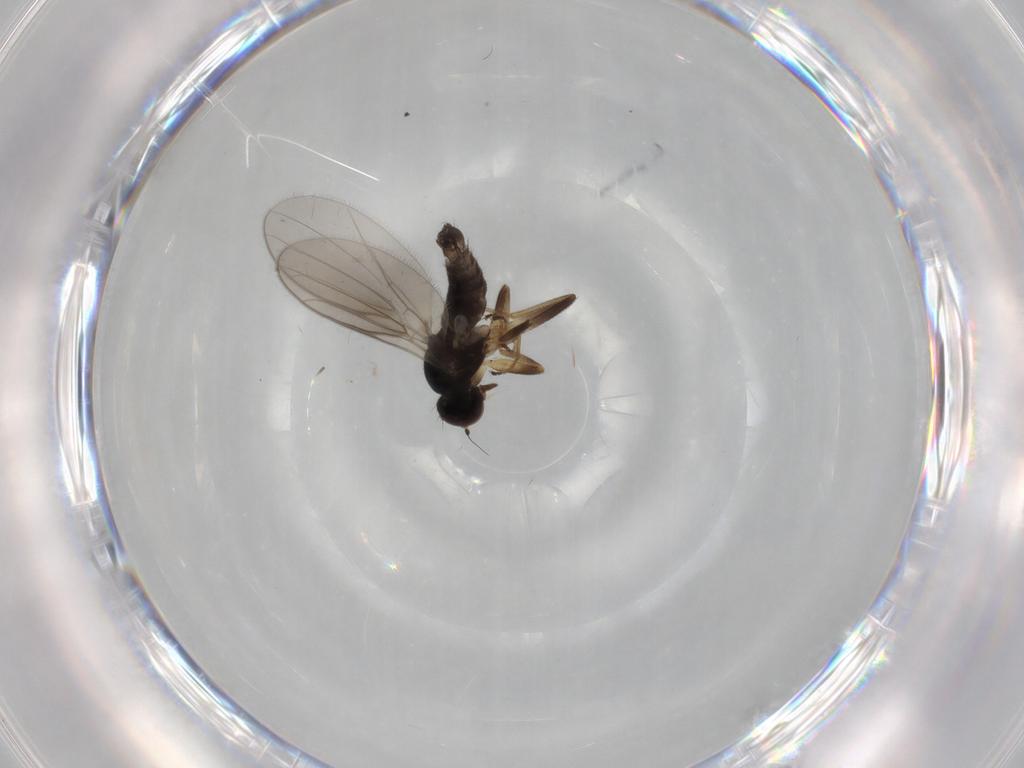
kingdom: Animalia
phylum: Arthropoda
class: Insecta
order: Diptera
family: Hybotidae
